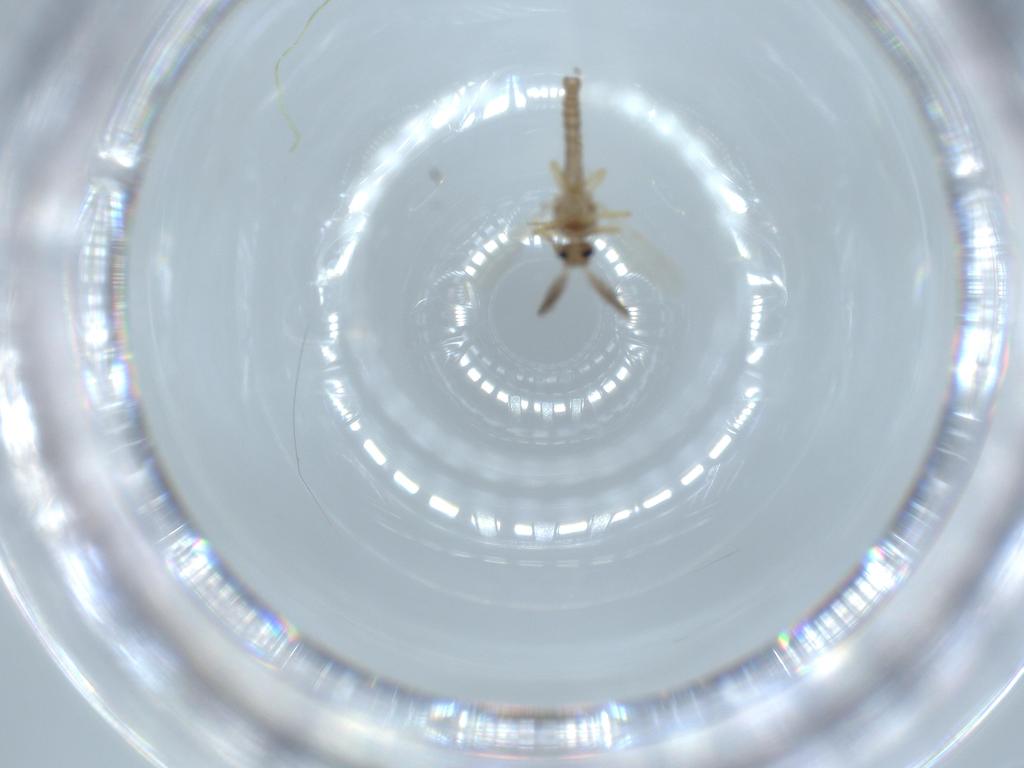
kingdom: Animalia
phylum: Arthropoda
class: Insecta
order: Diptera
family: Ceratopogonidae
